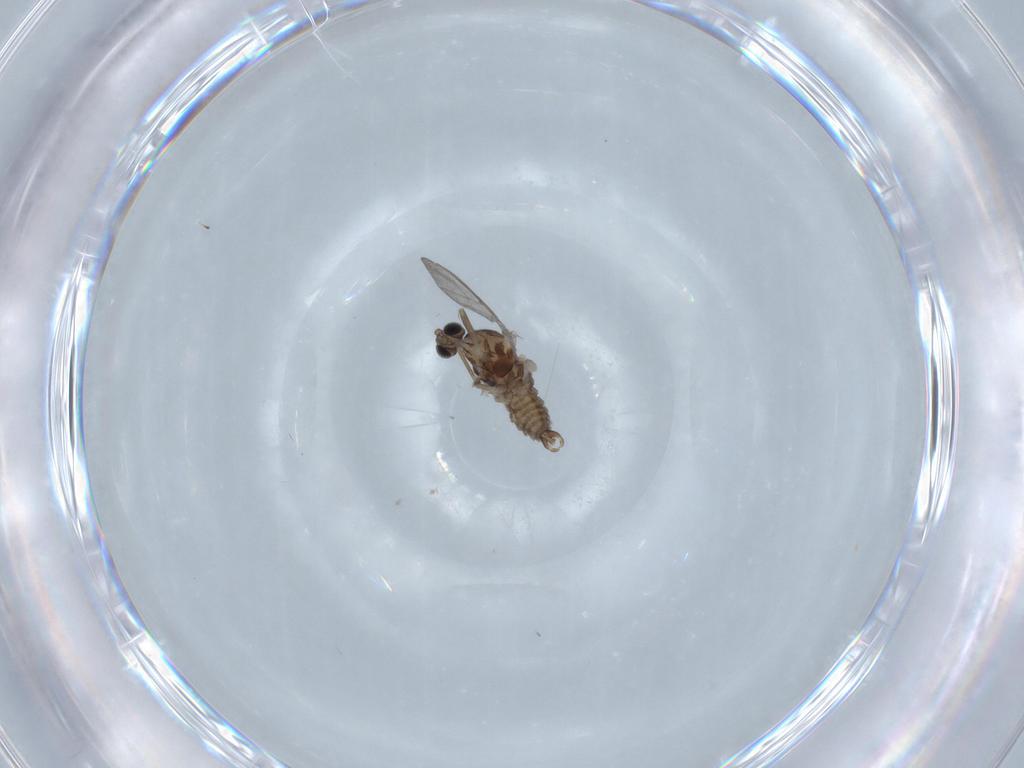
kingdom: Animalia
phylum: Arthropoda
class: Insecta
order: Diptera
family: Cecidomyiidae
